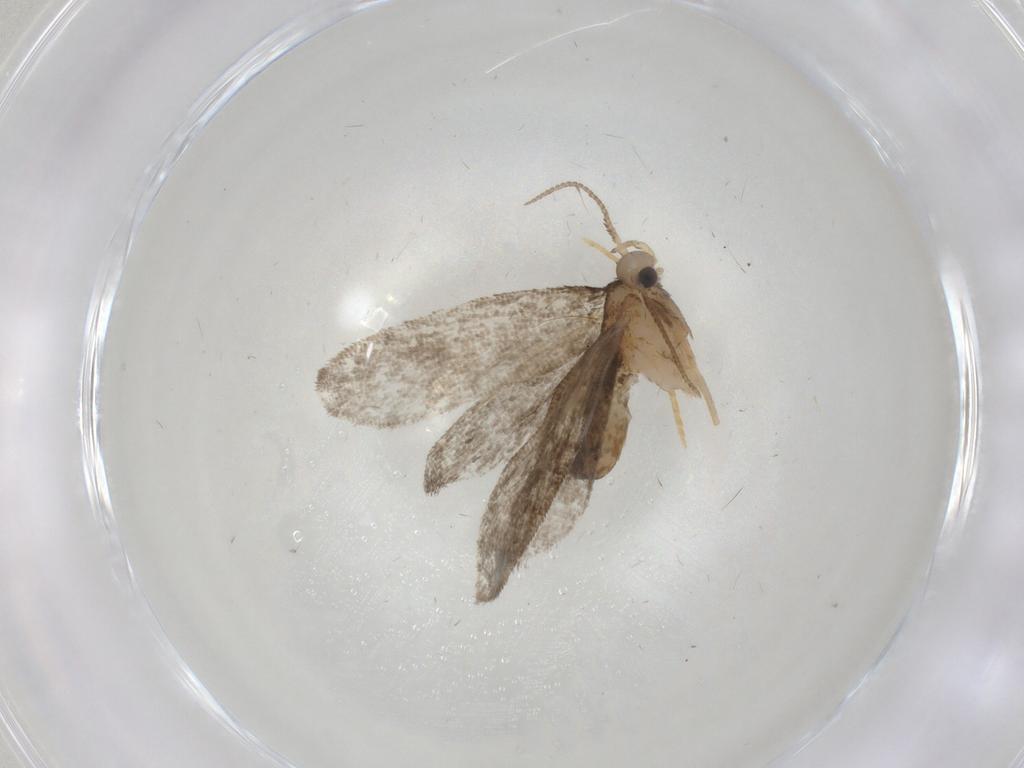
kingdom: Animalia
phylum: Arthropoda
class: Insecta
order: Lepidoptera
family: Psychidae
